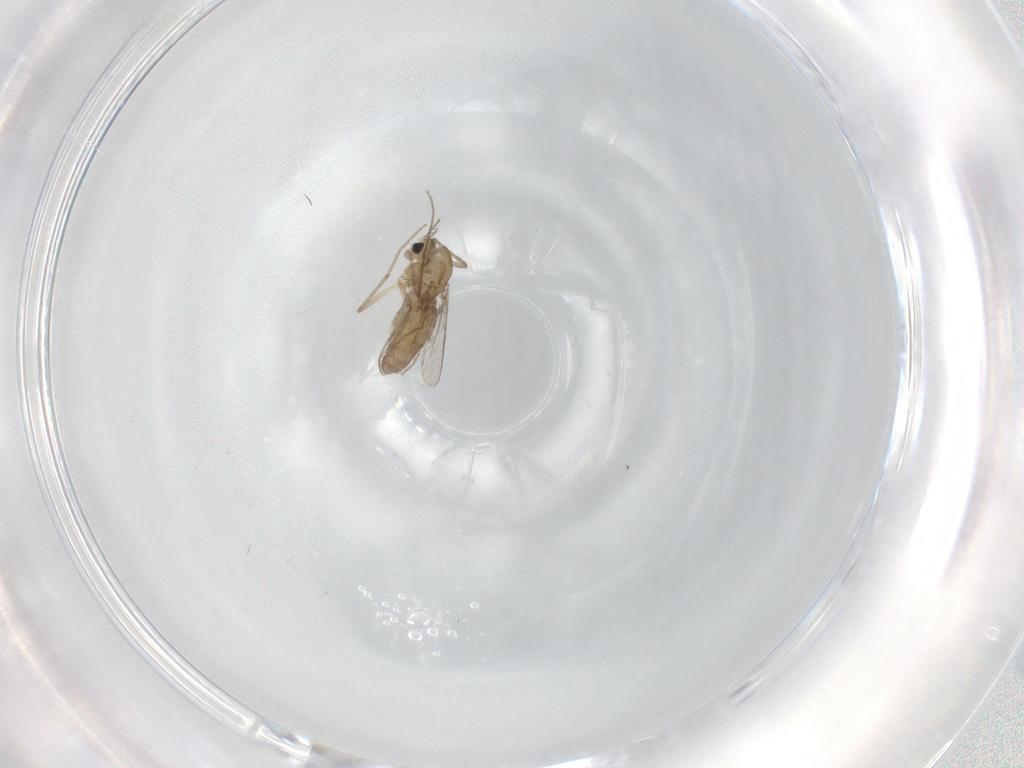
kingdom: Animalia
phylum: Arthropoda
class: Insecta
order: Diptera
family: Chironomidae
